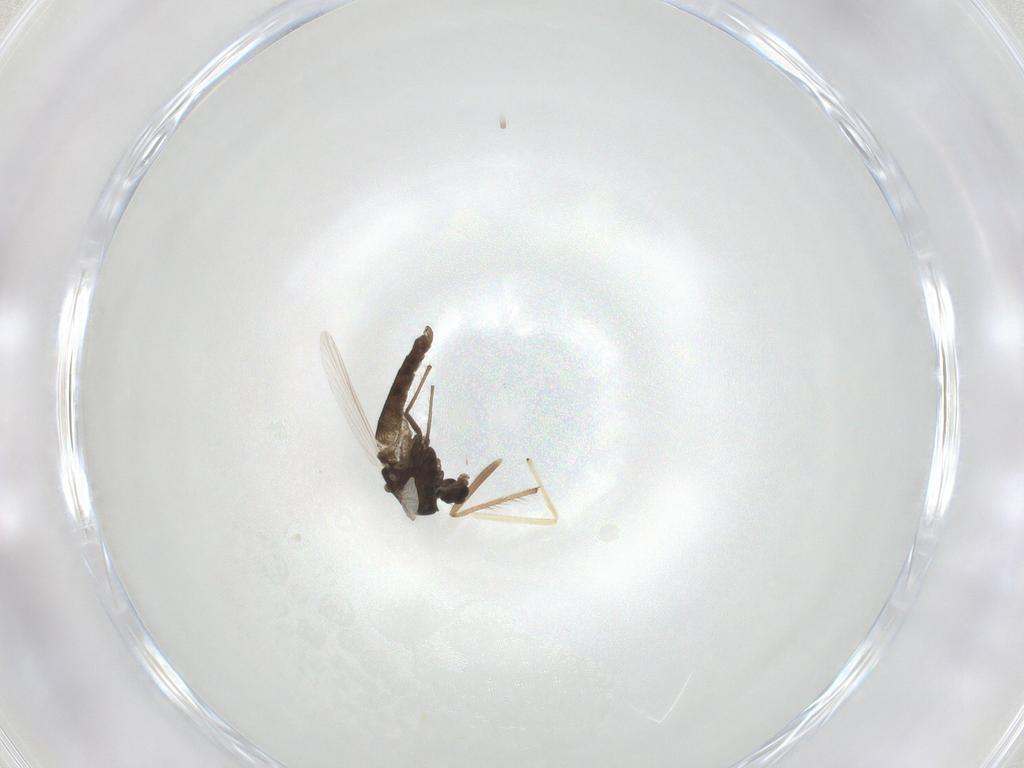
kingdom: Animalia
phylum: Arthropoda
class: Insecta
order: Diptera
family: Chironomidae
